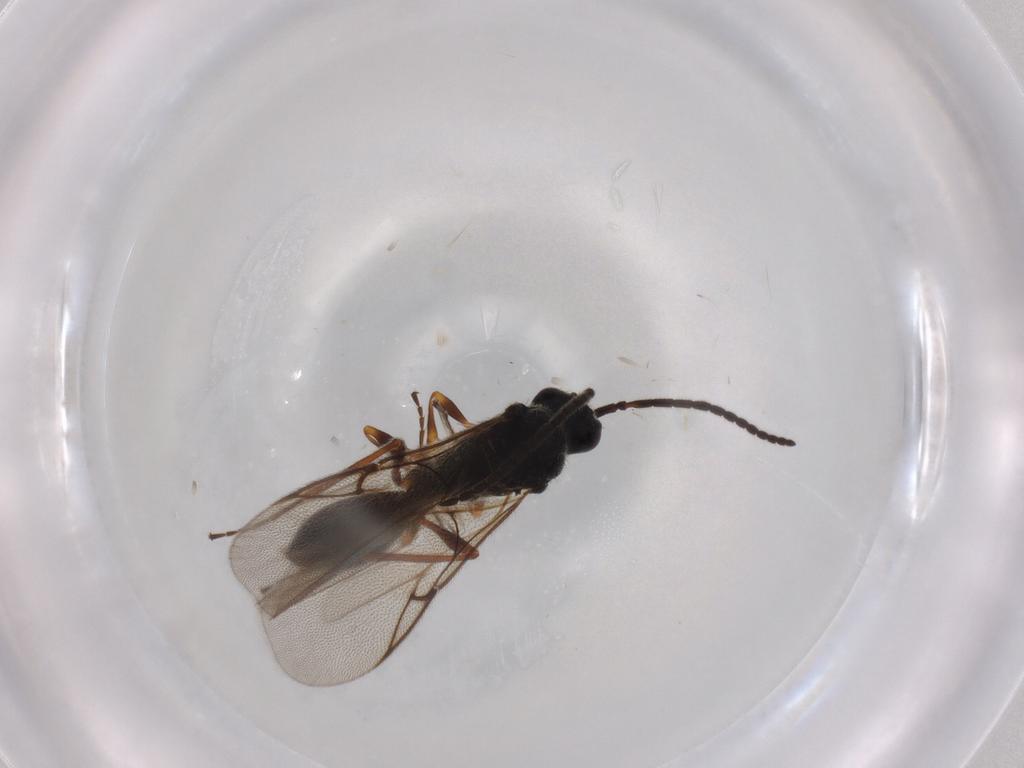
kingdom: Animalia
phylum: Arthropoda
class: Insecta
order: Hymenoptera
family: Diapriidae
